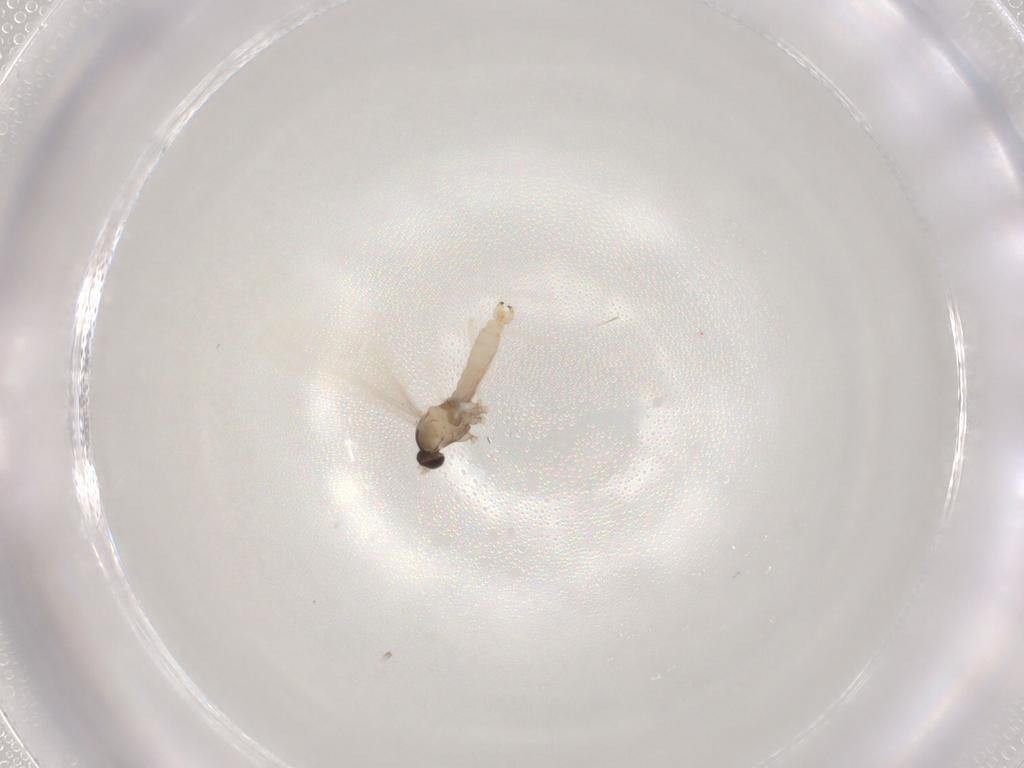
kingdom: Animalia
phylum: Arthropoda
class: Insecta
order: Diptera
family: Cecidomyiidae
